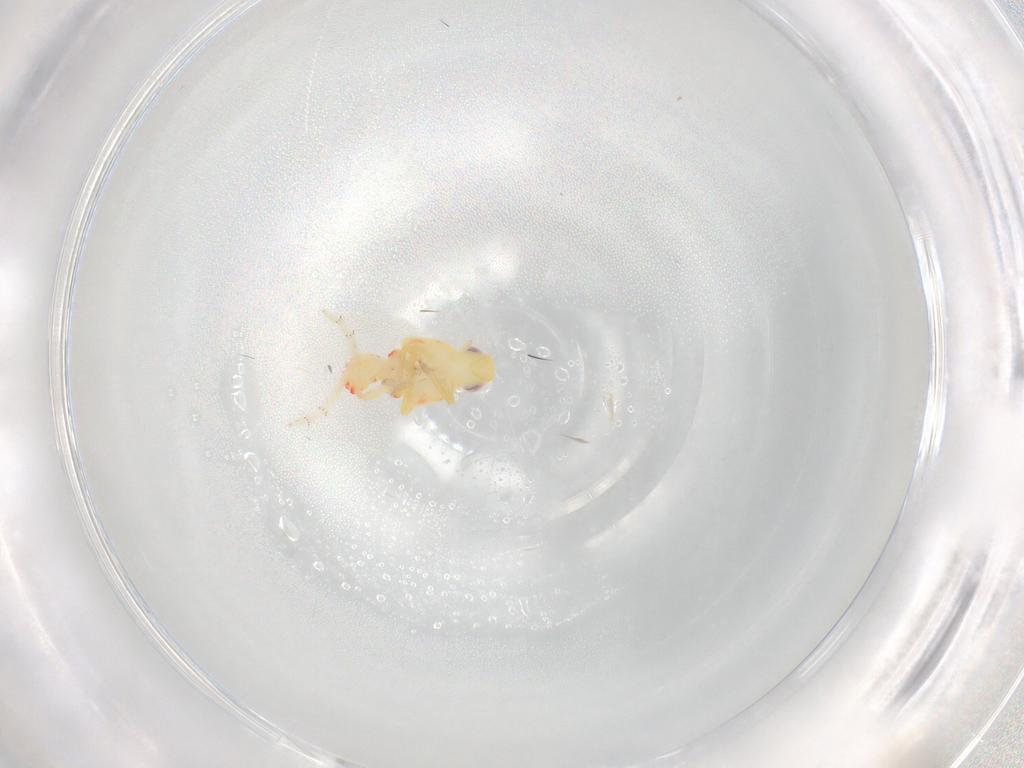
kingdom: Animalia
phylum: Arthropoda
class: Insecta
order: Hemiptera
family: Tropiduchidae
